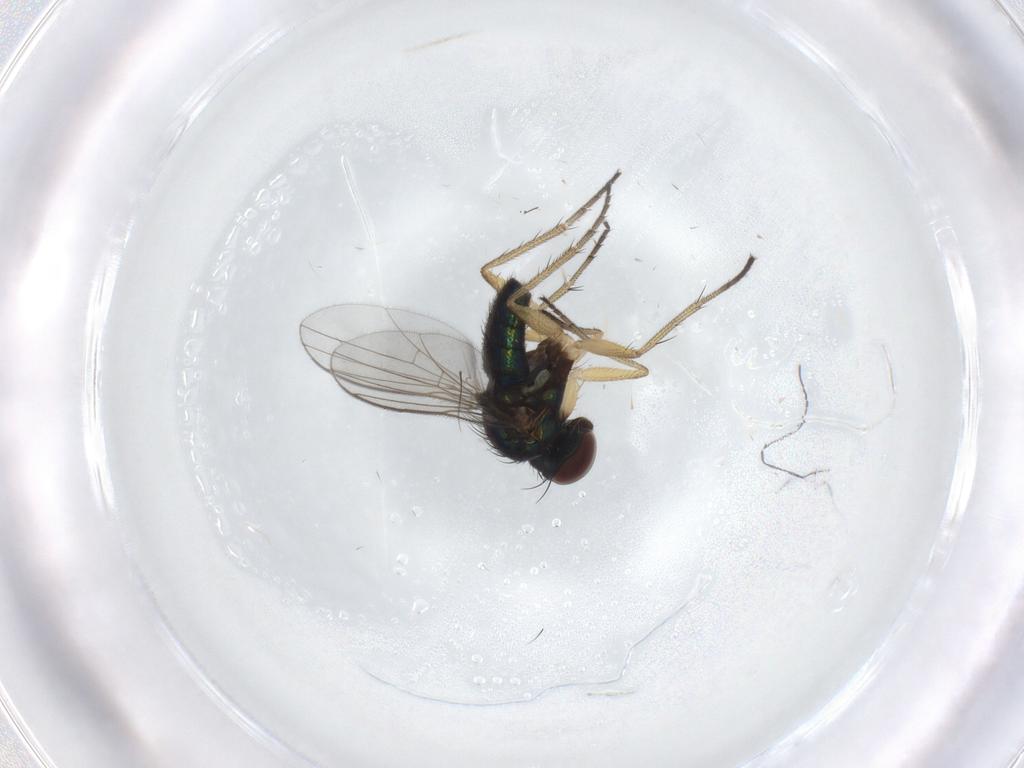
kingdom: Animalia
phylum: Arthropoda
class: Insecta
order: Diptera
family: Dolichopodidae
